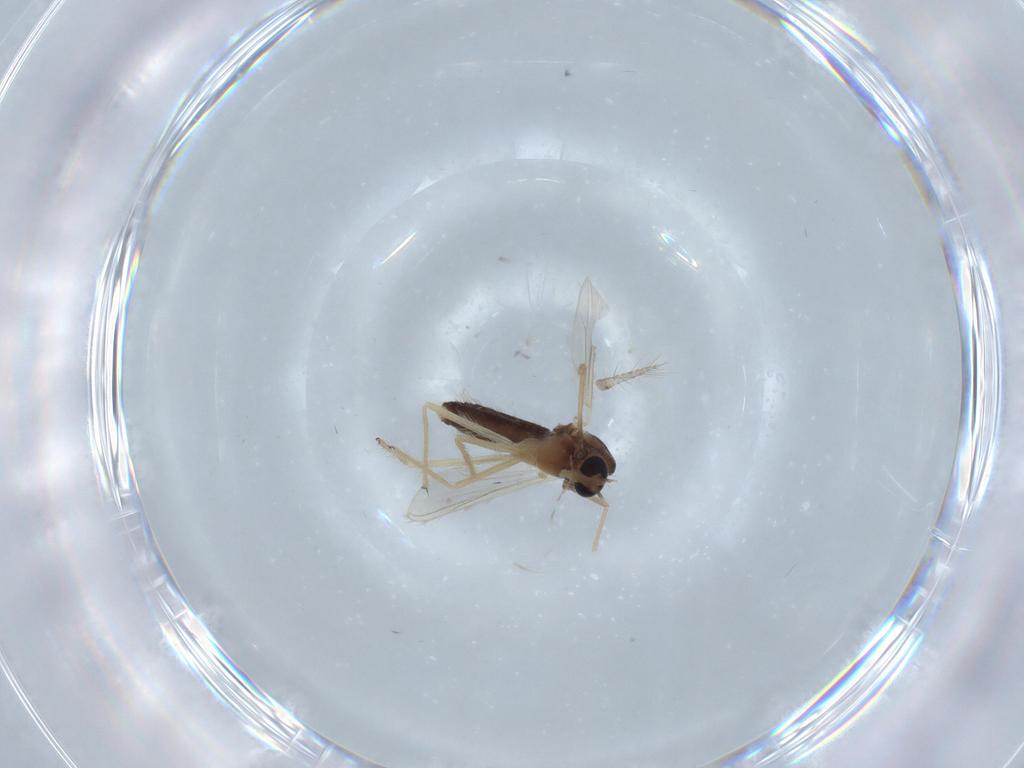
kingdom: Animalia
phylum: Arthropoda
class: Insecta
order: Diptera
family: Chironomidae
